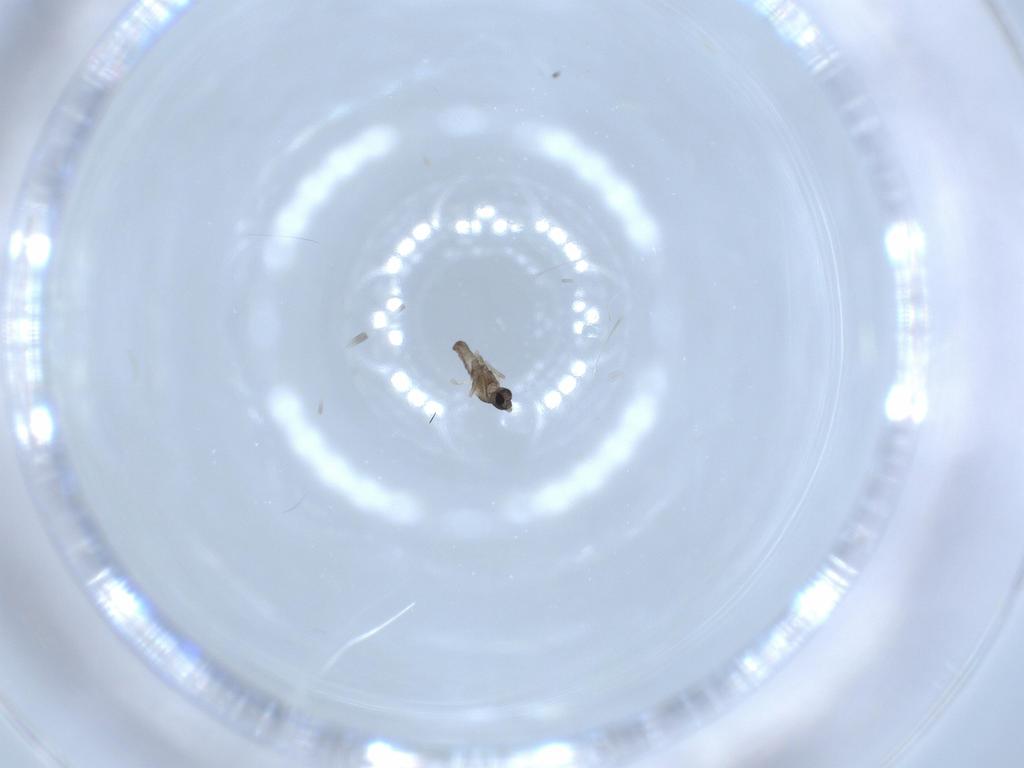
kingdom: Animalia
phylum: Arthropoda
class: Insecta
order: Diptera
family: Cecidomyiidae
